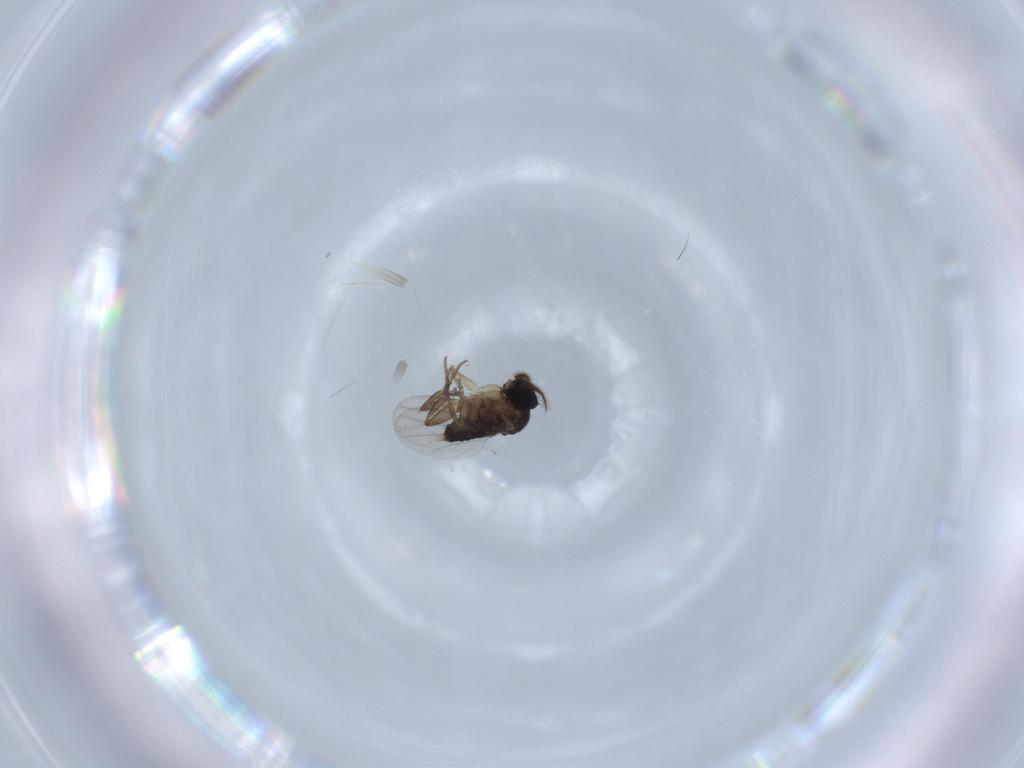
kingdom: Animalia
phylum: Arthropoda
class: Insecta
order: Diptera
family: Phoridae
